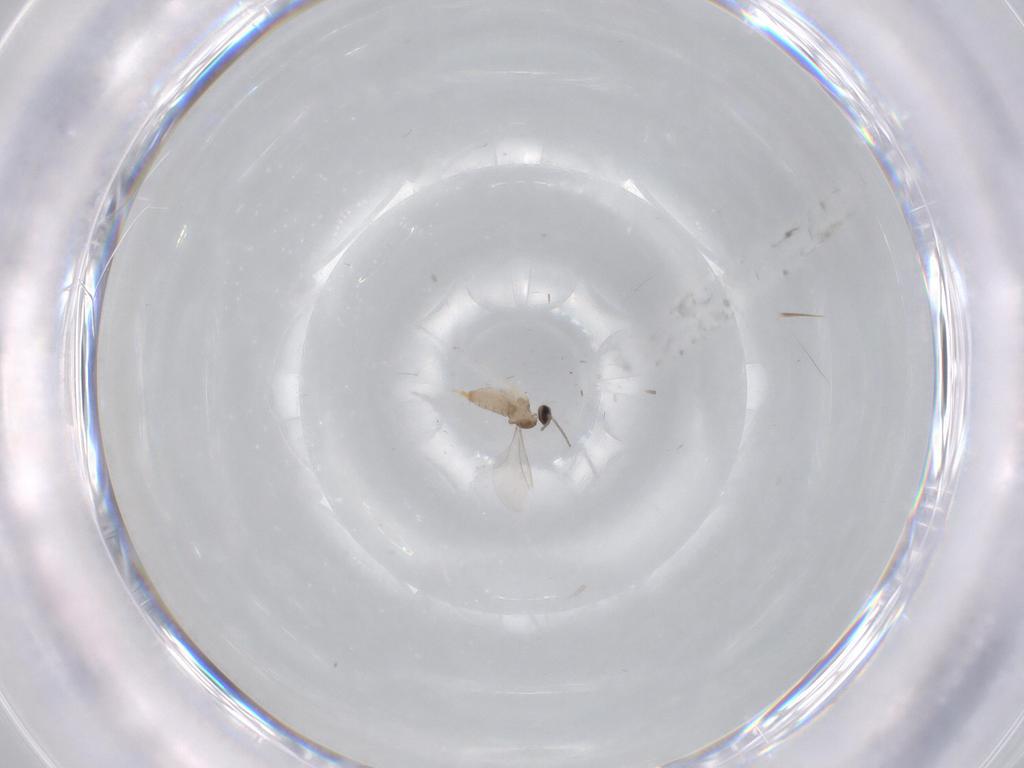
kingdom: Animalia
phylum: Arthropoda
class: Insecta
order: Diptera
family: Cecidomyiidae
